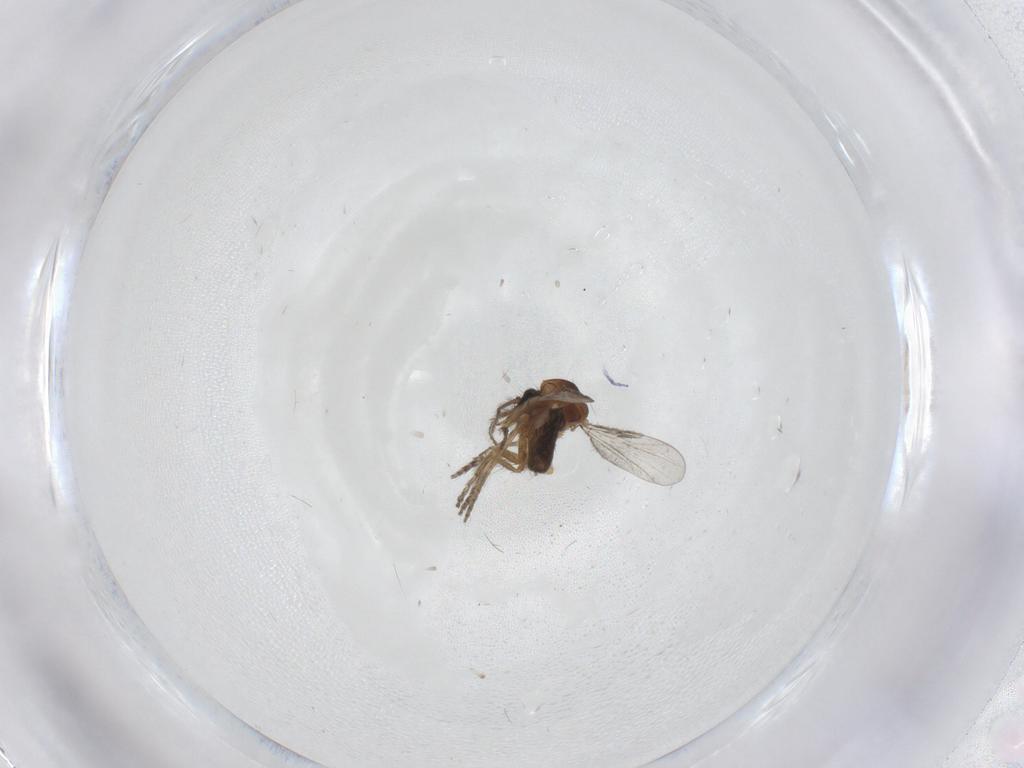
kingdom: Animalia
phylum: Arthropoda
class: Insecta
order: Diptera
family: Ceratopogonidae
